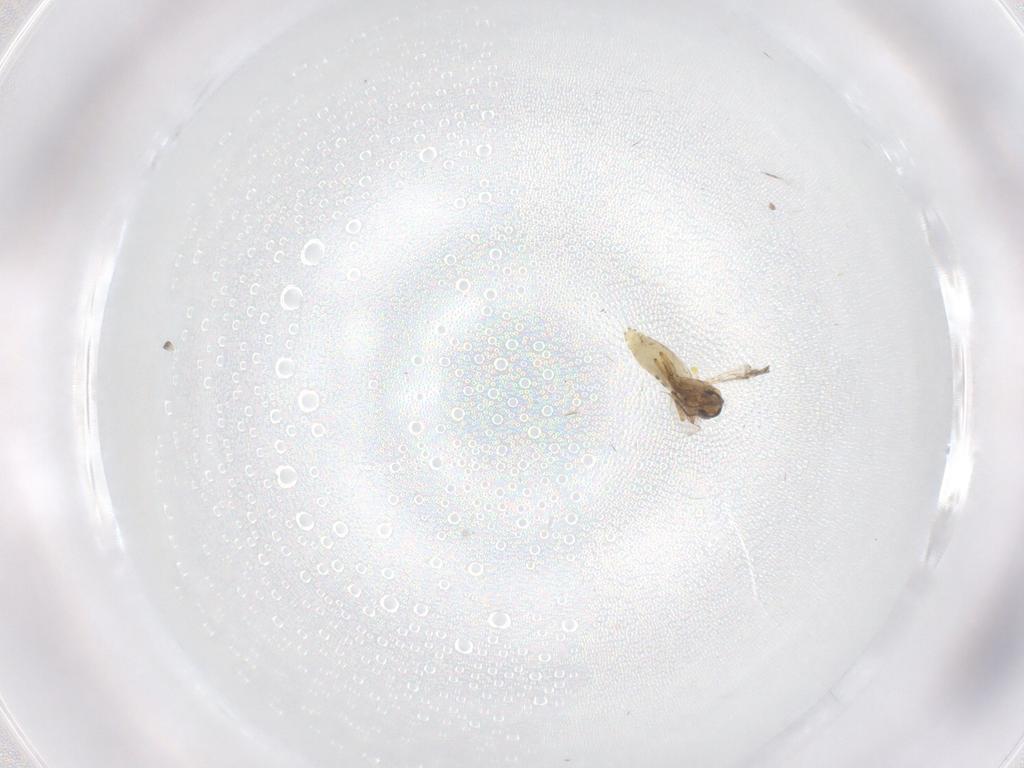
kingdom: Animalia
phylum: Arthropoda
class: Insecta
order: Diptera
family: Ceratopogonidae
